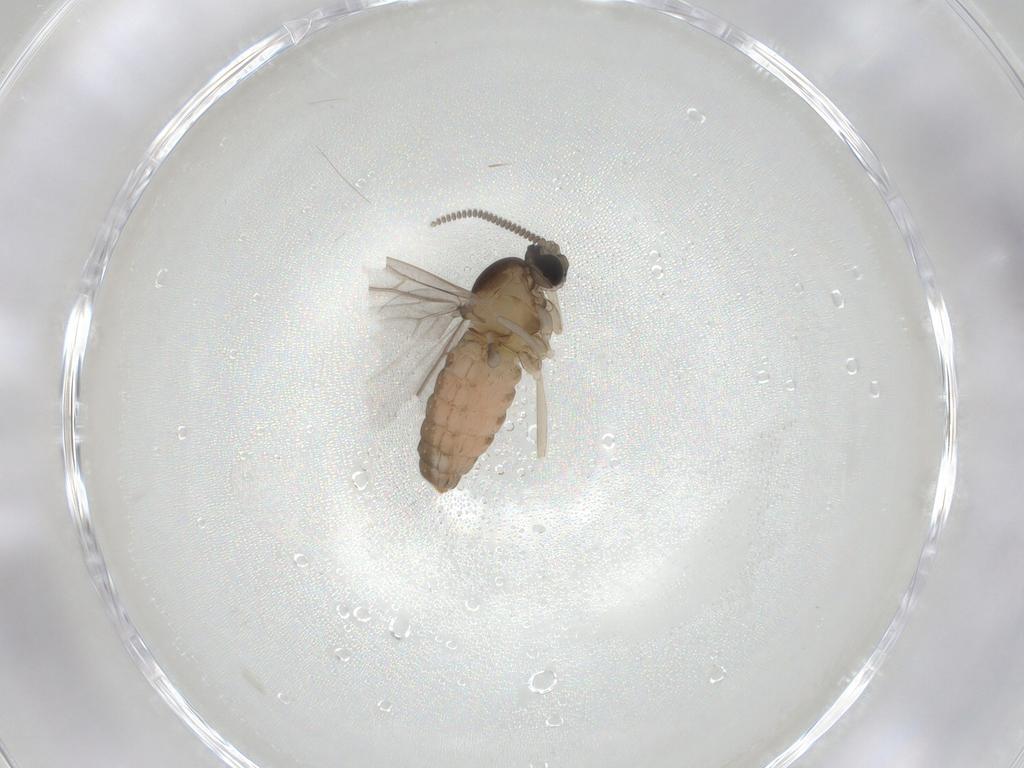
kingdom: Animalia
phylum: Arthropoda
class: Insecta
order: Diptera
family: Cecidomyiidae
